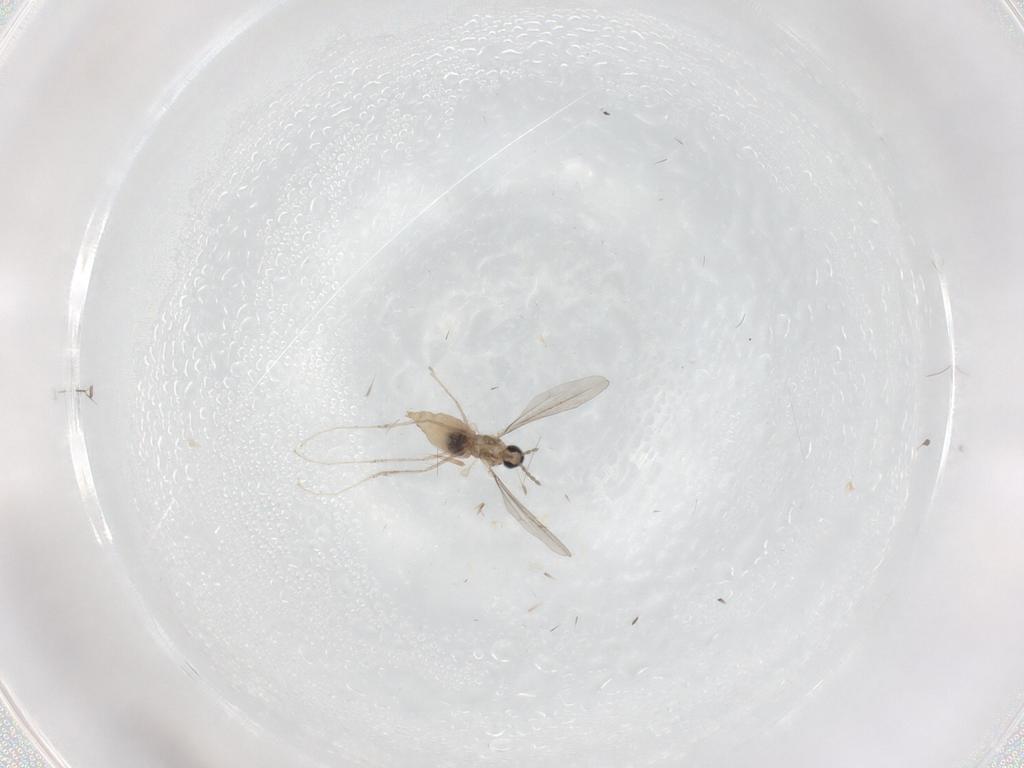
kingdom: Animalia
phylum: Arthropoda
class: Insecta
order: Diptera
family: Cecidomyiidae
